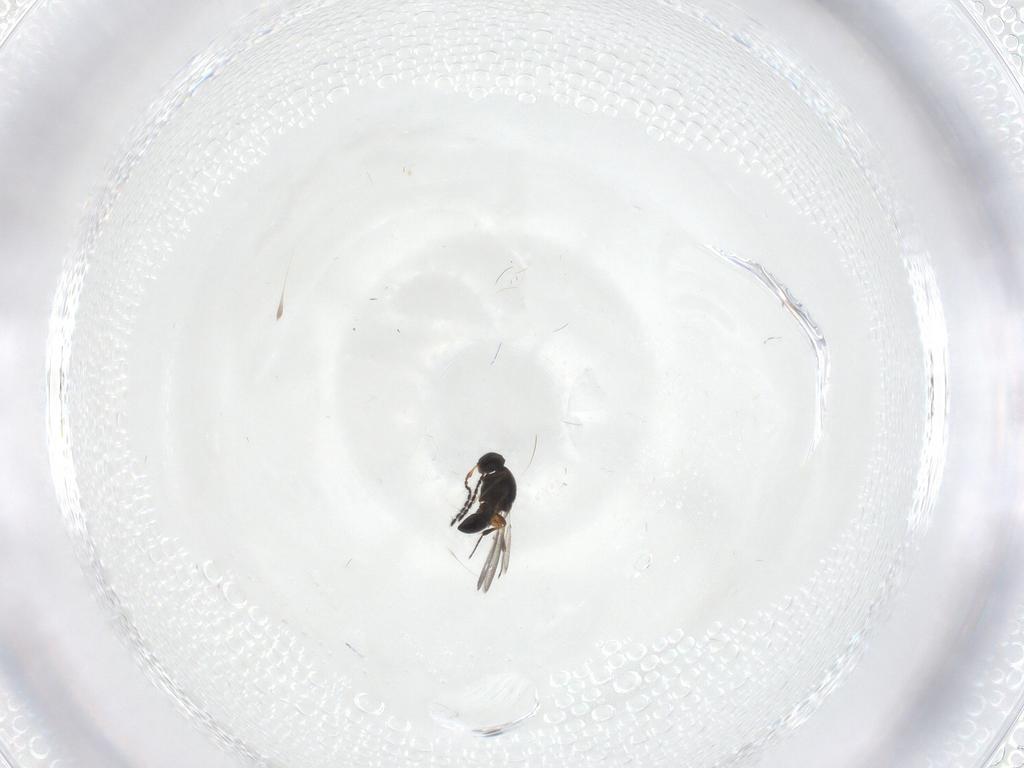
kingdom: Animalia
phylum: Arthropoda
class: Insecta
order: Hymenoptera
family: Platygastridae
